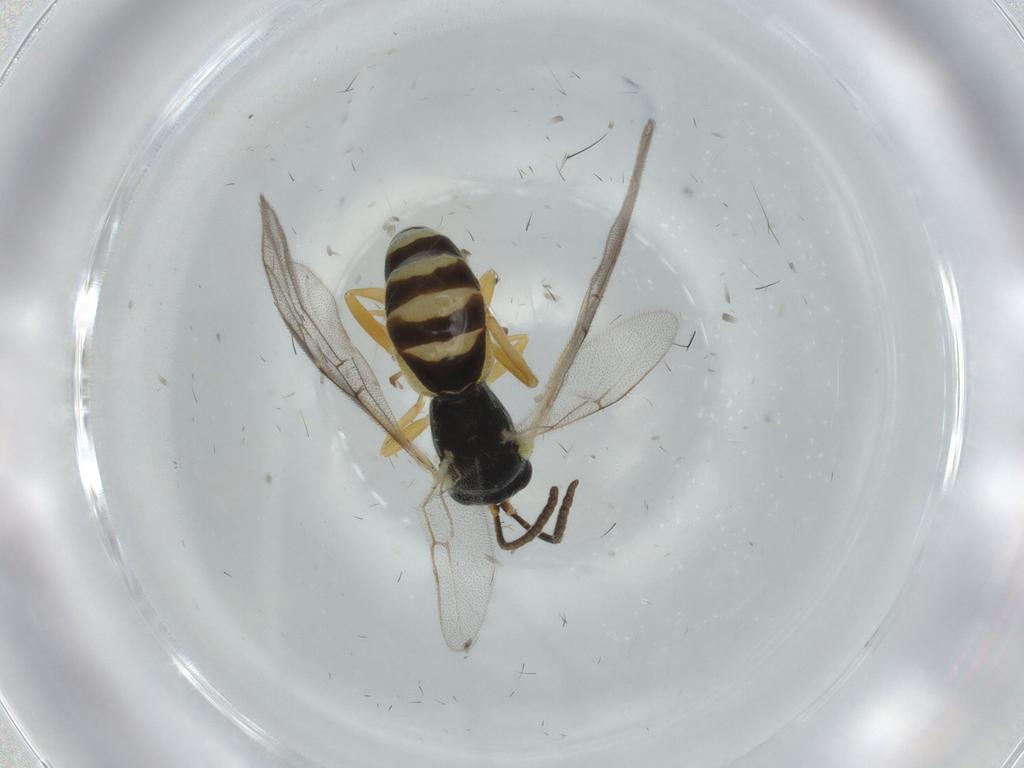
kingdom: Animalia
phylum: Arthropoda
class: Insecta
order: Hymenoptera
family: Ichneumonidae
